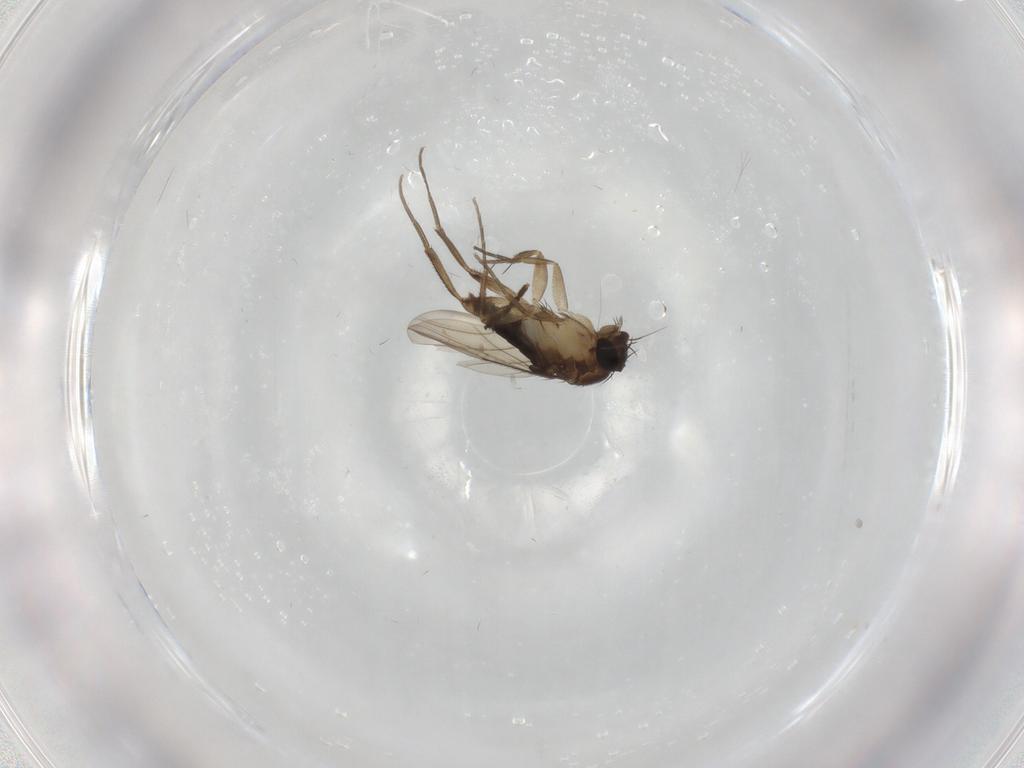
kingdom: Animalia
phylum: Arthropoda
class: Insecta
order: Diptera
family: Sciaridae
